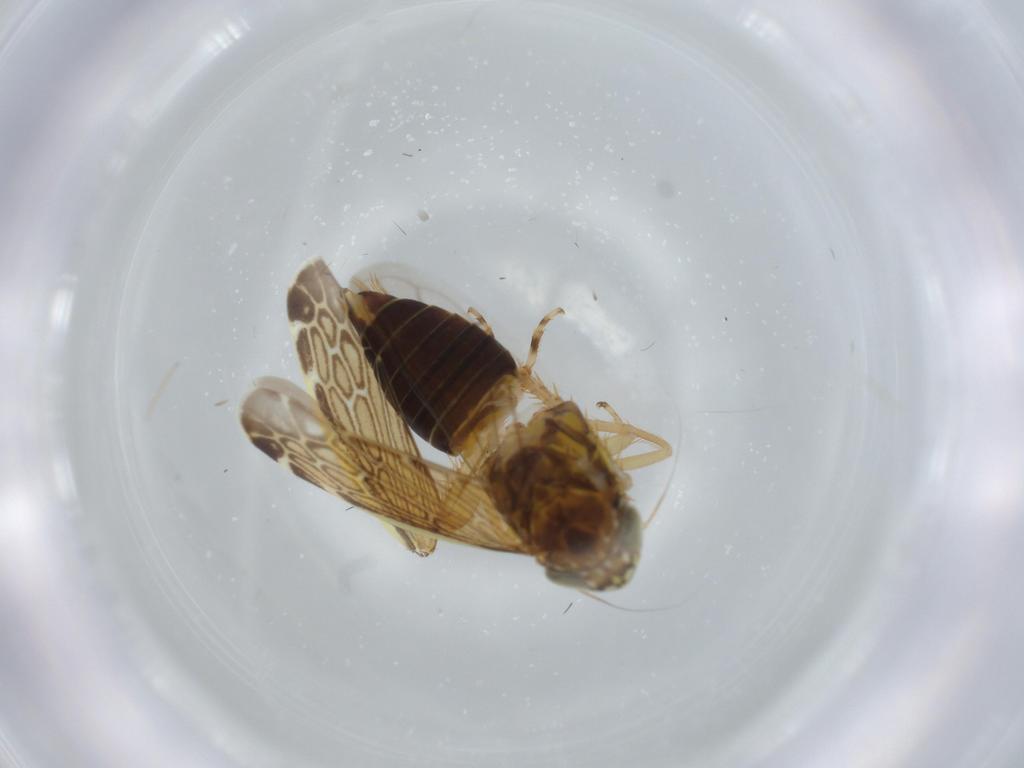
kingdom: Animalia
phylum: Arthropoda
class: Insecta
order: Hemiptera
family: Cicadellidae
